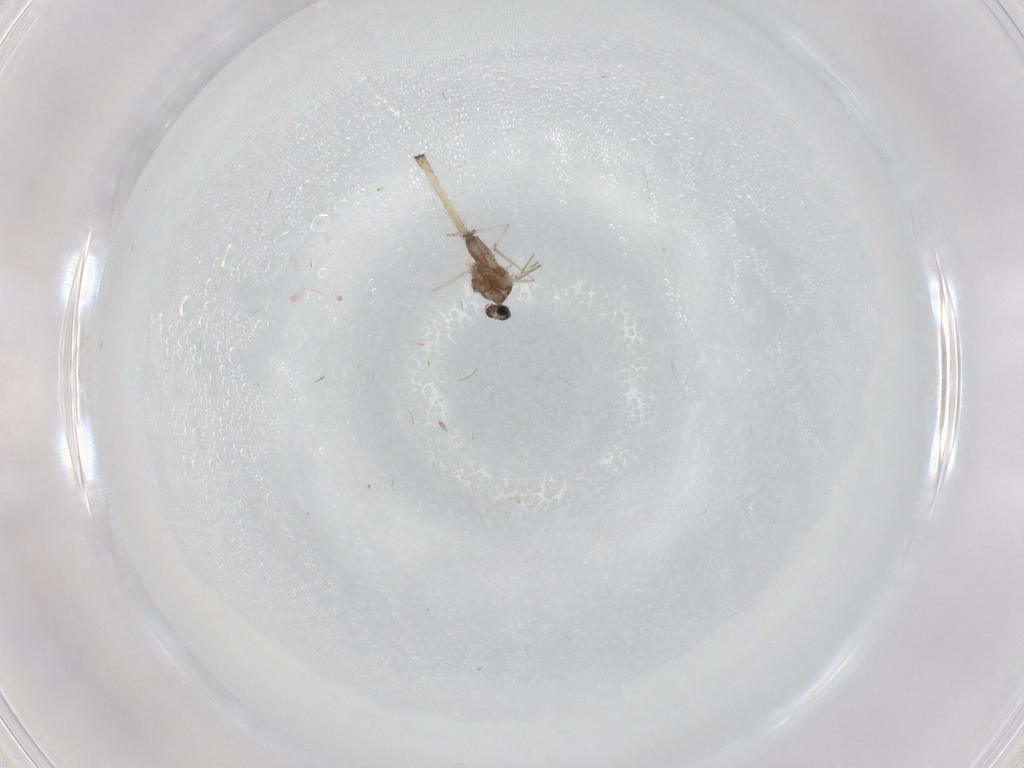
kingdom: Animalia
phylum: Arthropoda
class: Insecta
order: Diptera
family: Cecidomyiidae
